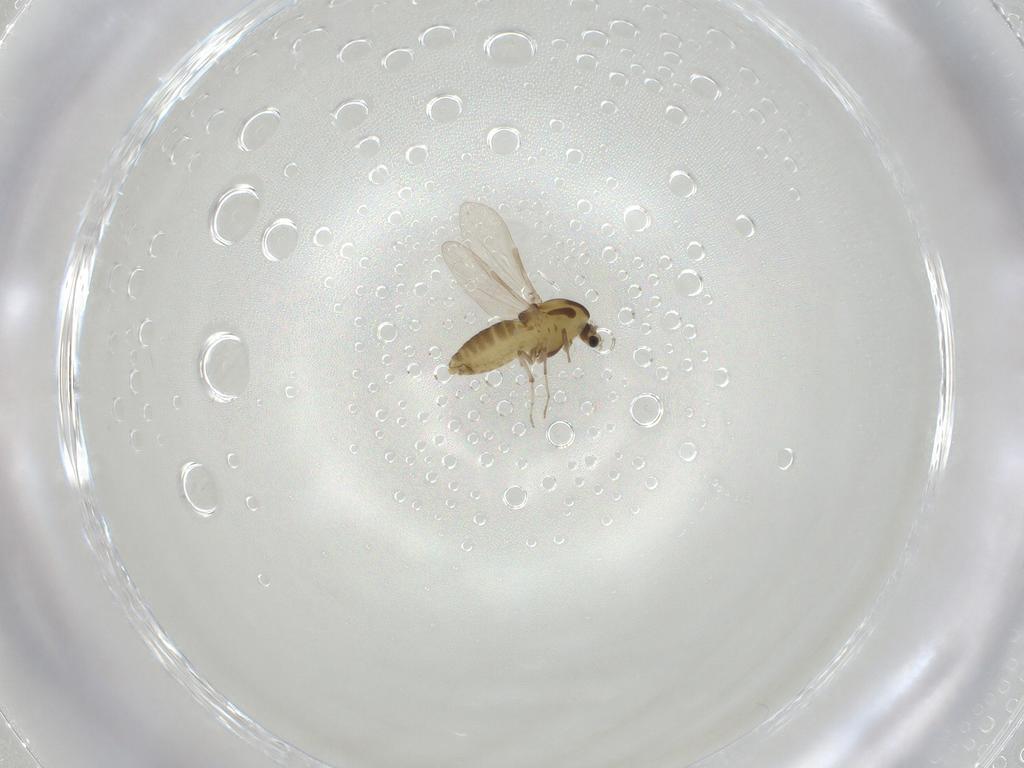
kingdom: Animalia
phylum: Arthropoda
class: Insecta
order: Diptera
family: Chironomidae
